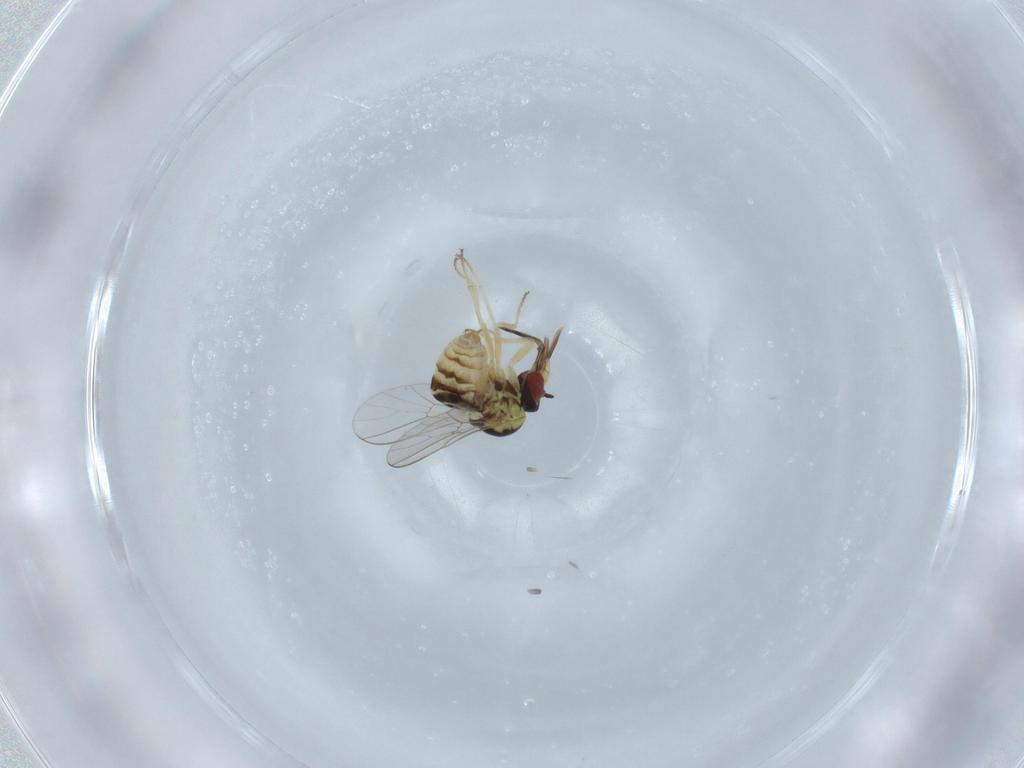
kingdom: Animalia
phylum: Arthropoda
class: Insecta
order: Diptera
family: Bombyliidae
